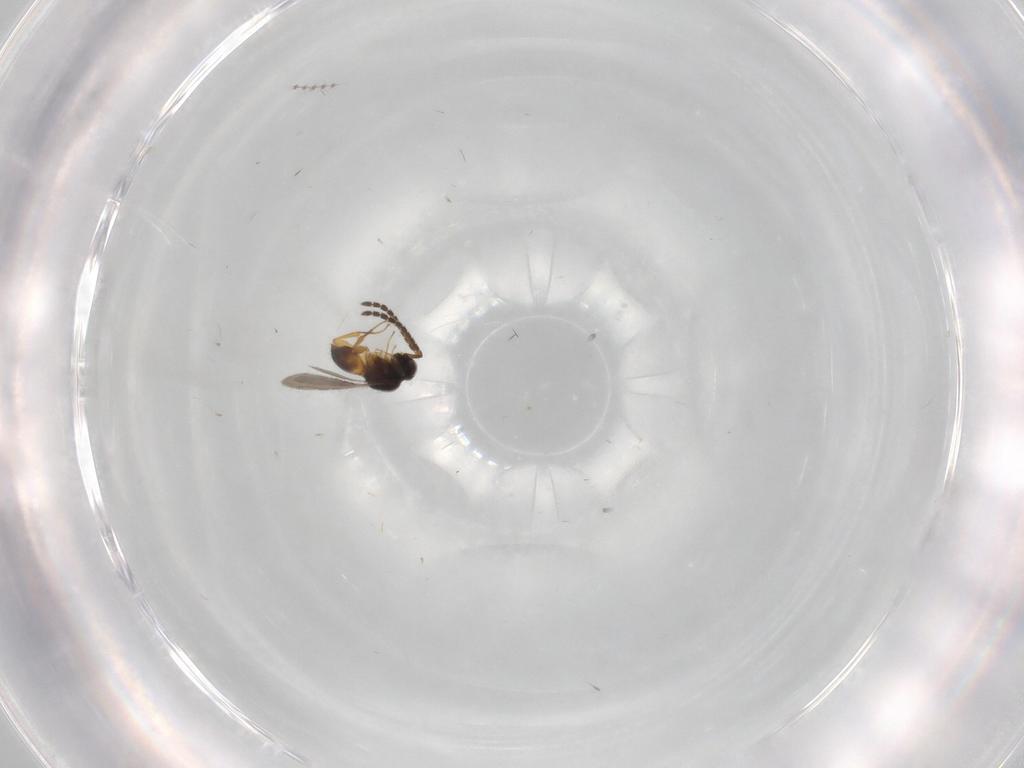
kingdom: Animalia
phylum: Arthropoda
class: Insecta
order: Hymenoptera
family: Ceraphronidae
